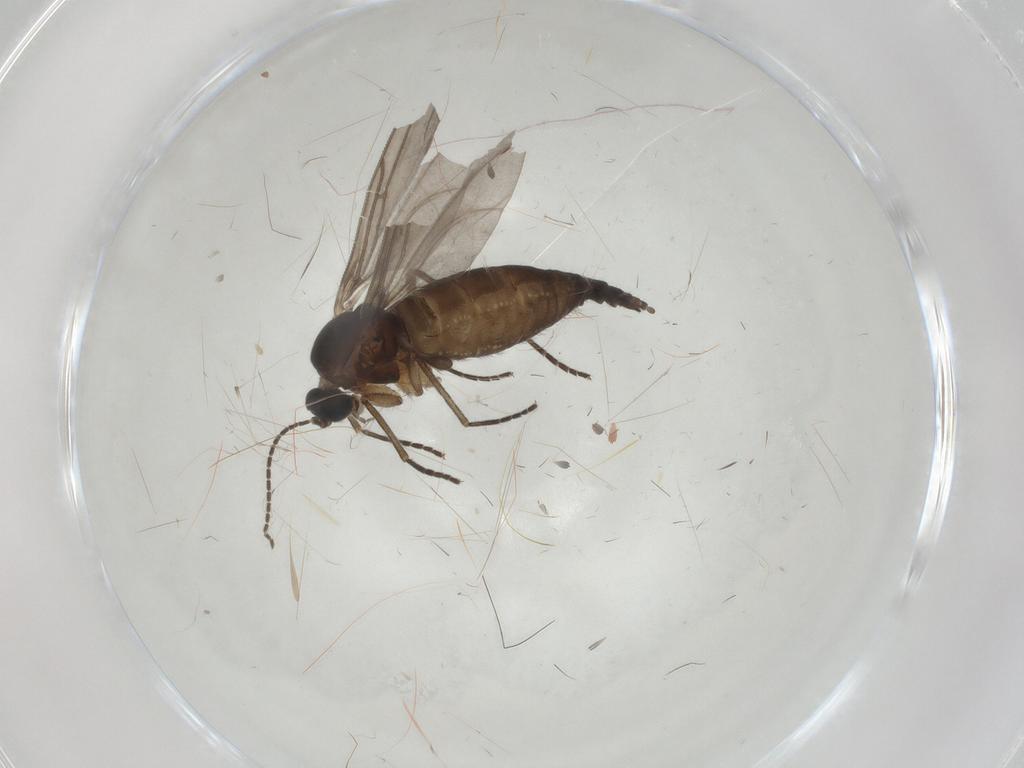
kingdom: Animalia
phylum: Arthropoda
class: Insecta
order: Diptera
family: Sciaridae
